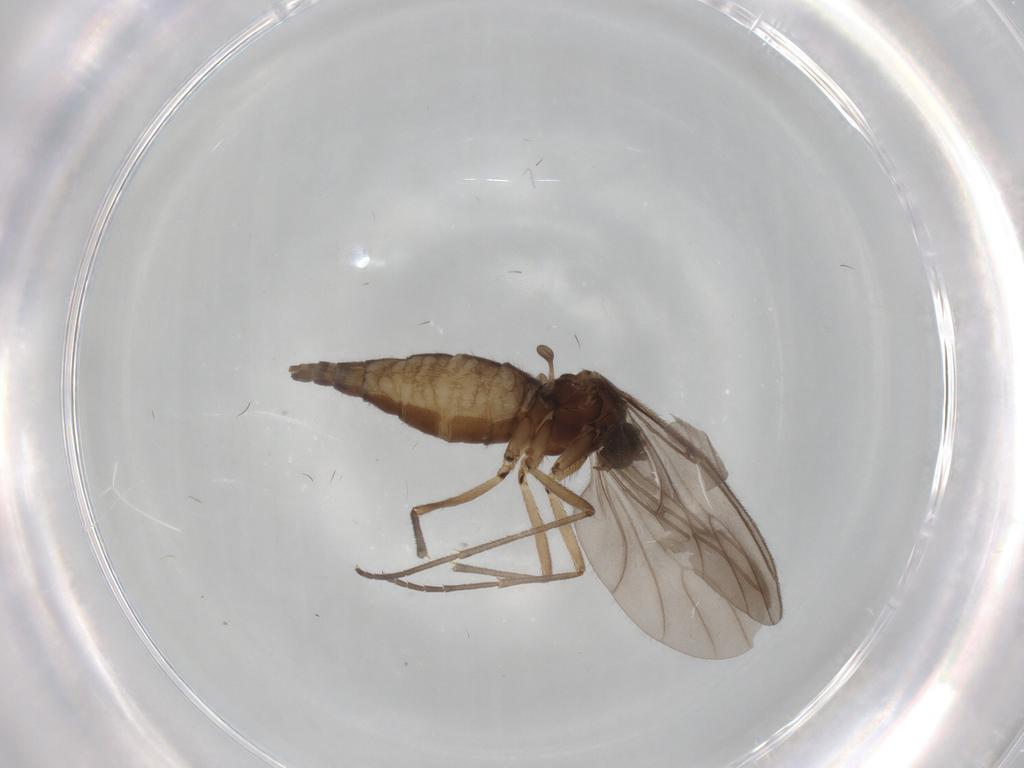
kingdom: Animalia
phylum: Arthropoda
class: Insecta
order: Diptera
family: Sciaridae
